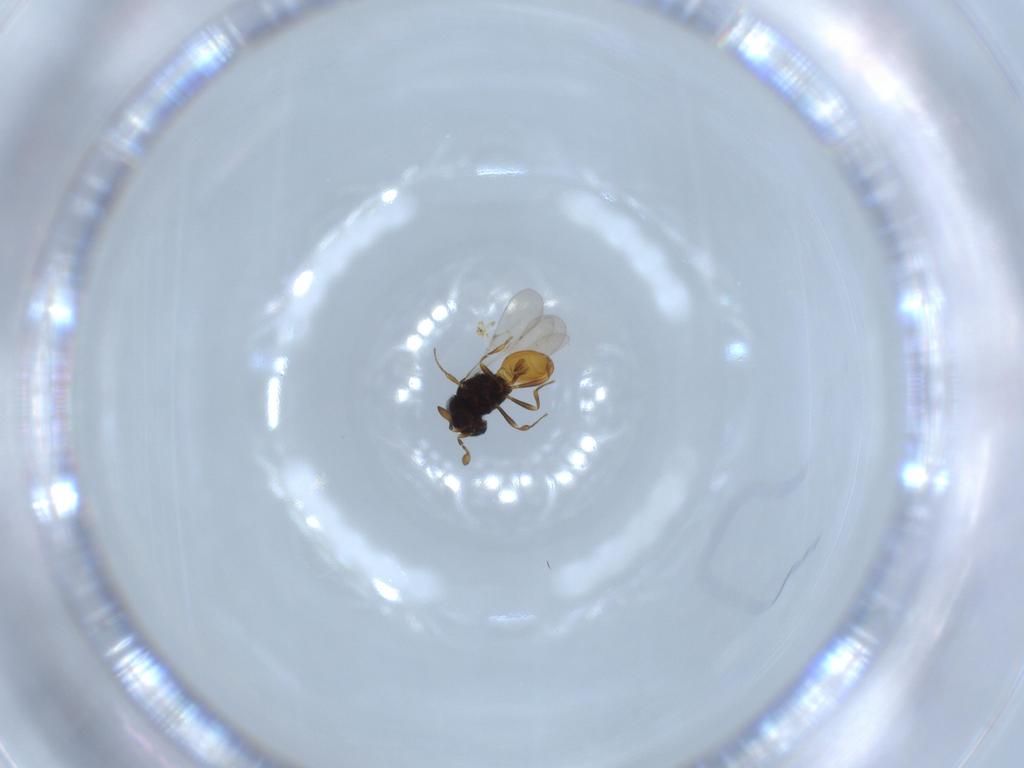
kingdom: Animalia
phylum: Arthropoda
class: Insecta
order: Hymenoptera
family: Scelionidae
